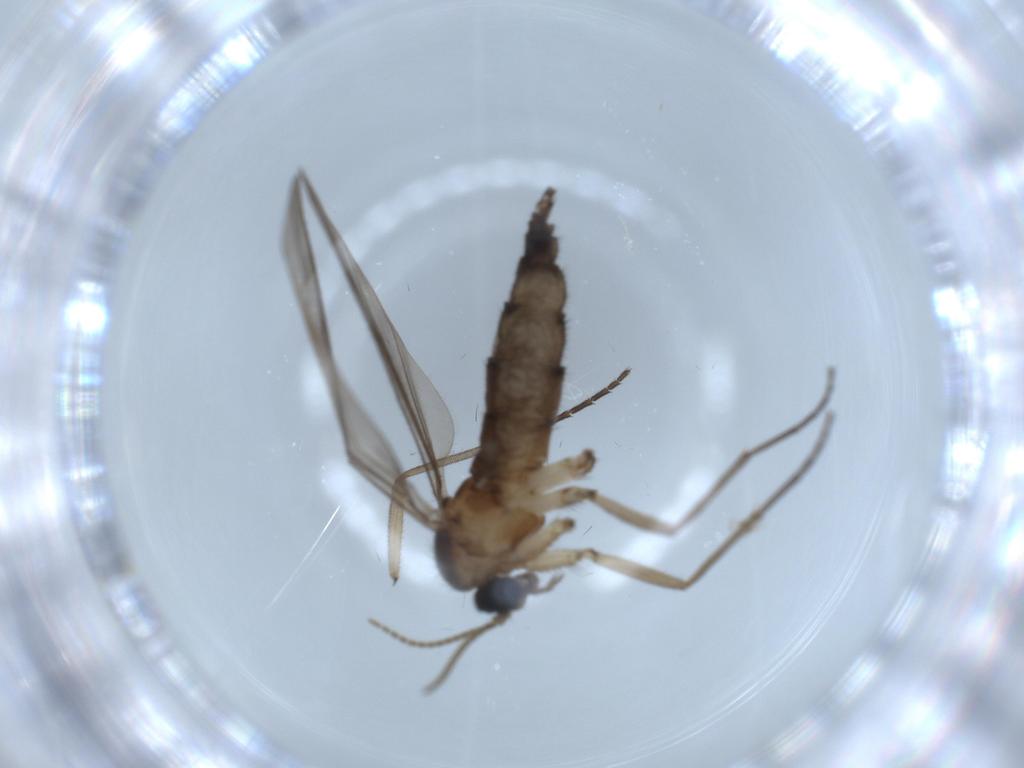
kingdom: Animalia
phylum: Arthropoda
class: Insecta
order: Diptera
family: Sciaridae
